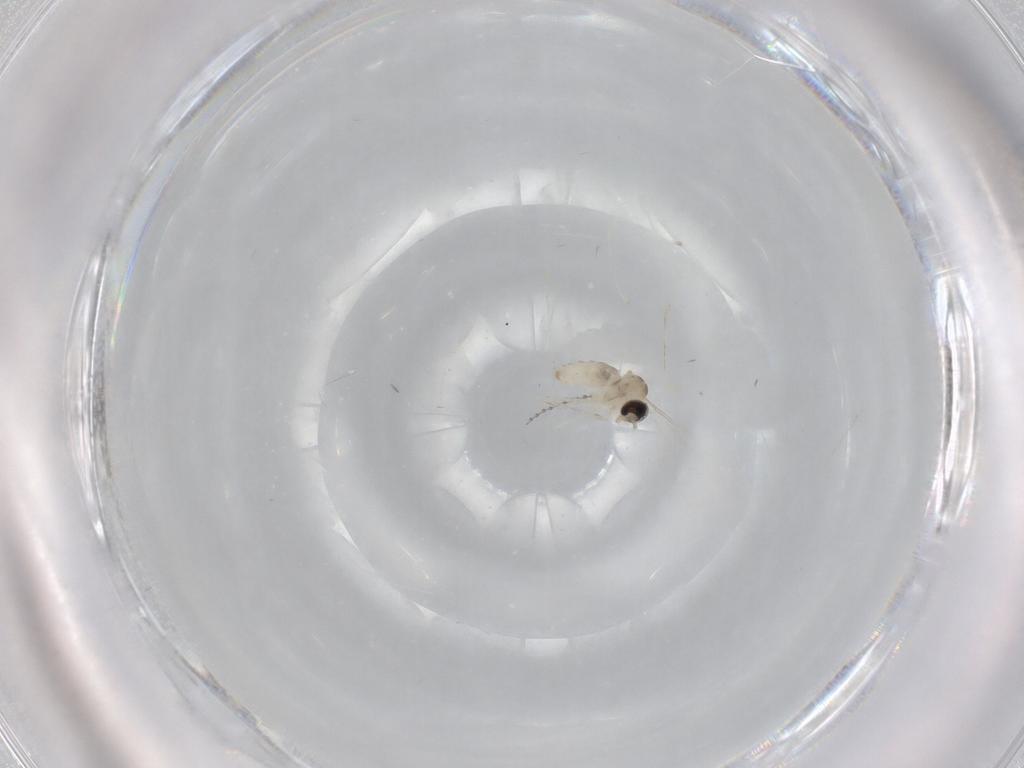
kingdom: Animalia
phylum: Arthropoda
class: Insecta
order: Diptera
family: Cecidomyiidae
